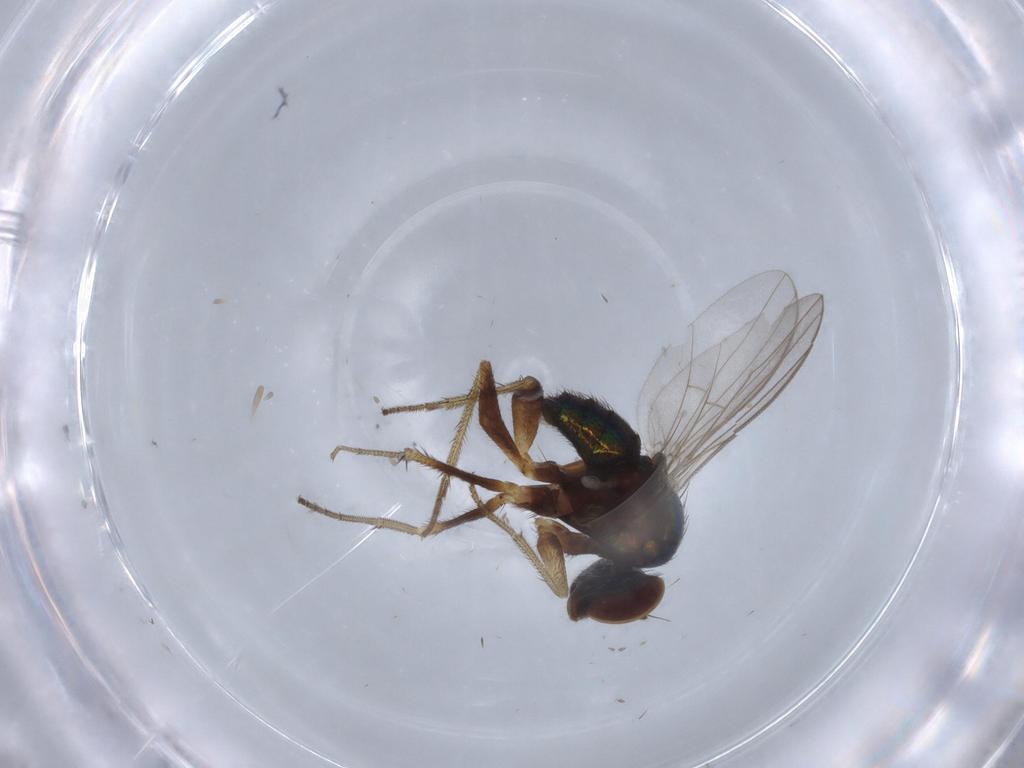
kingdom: Animalia
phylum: Arthropoda
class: Insecta
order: Diptera
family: Dolichopodidae
